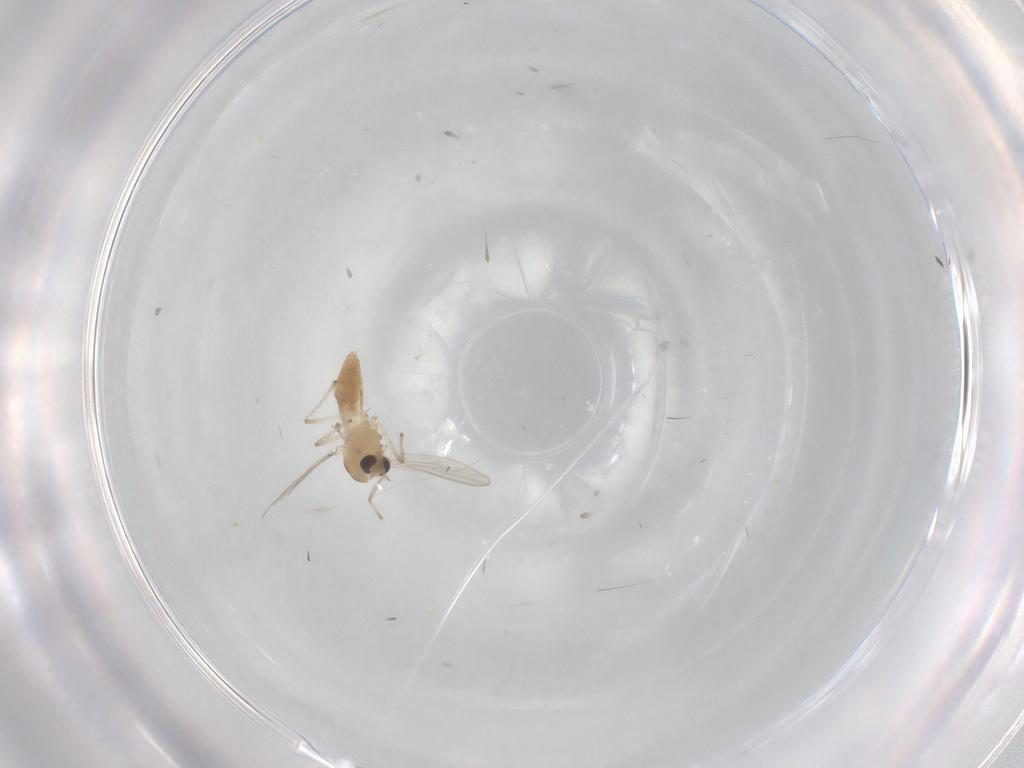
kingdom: Animalia
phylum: Arthropoda
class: Insecta
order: Diptera
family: Chironomidae
